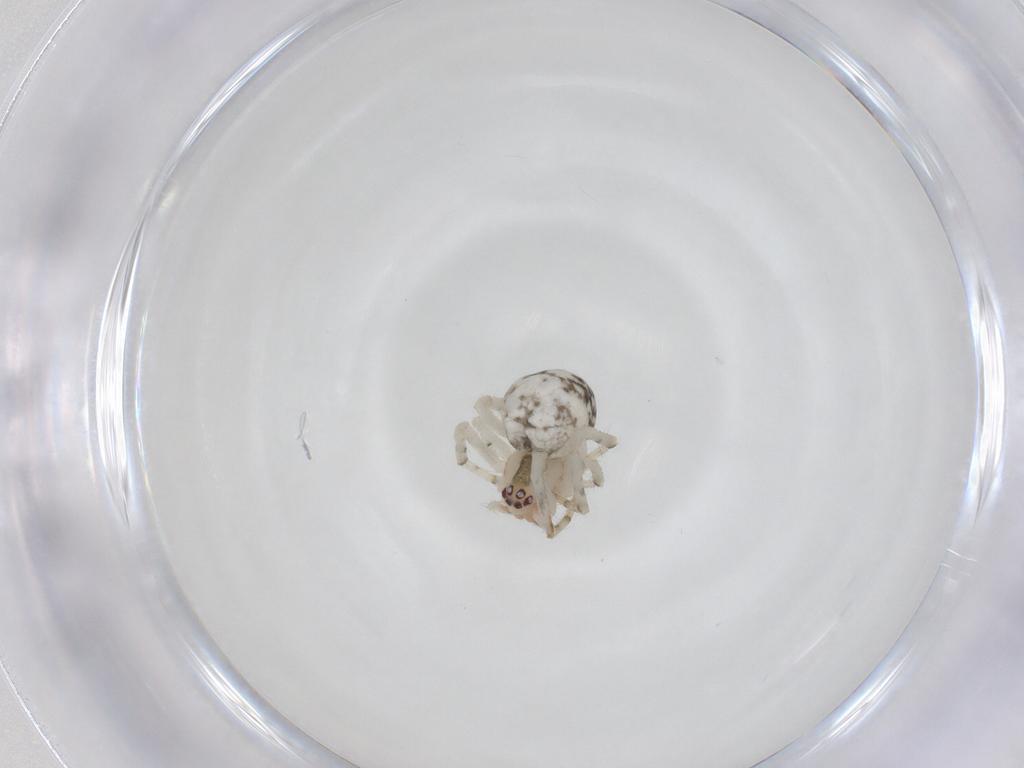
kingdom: Animalia
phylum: Arthropoda
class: Arachnida
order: Araneae
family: Theridiidae
